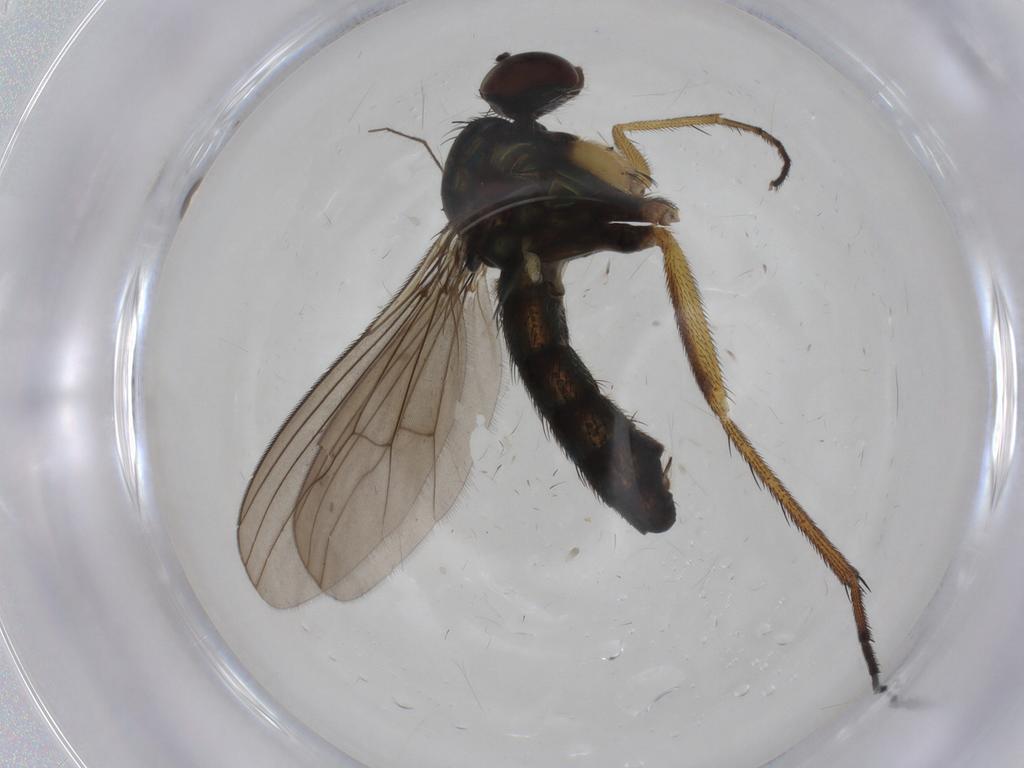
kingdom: Animalia
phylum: Arthropoda
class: Insecta
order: Diptera
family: Dolichopodidae
